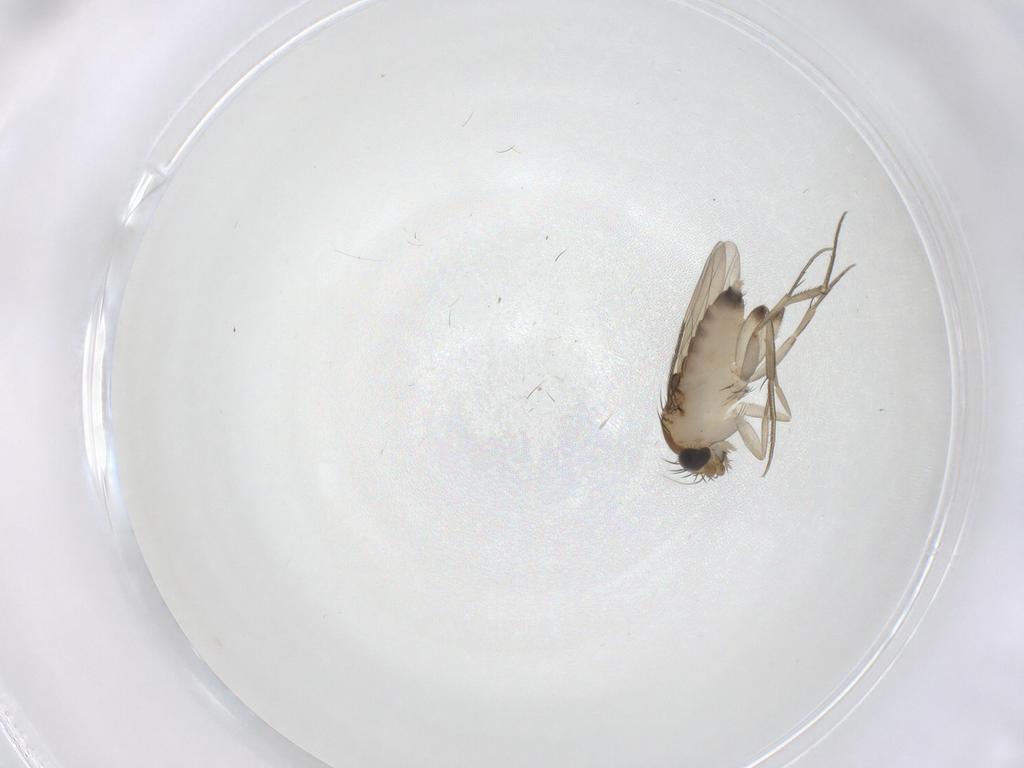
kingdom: Animalia
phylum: Arthropoda
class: Insecta
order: Diptera
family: Phoridae
